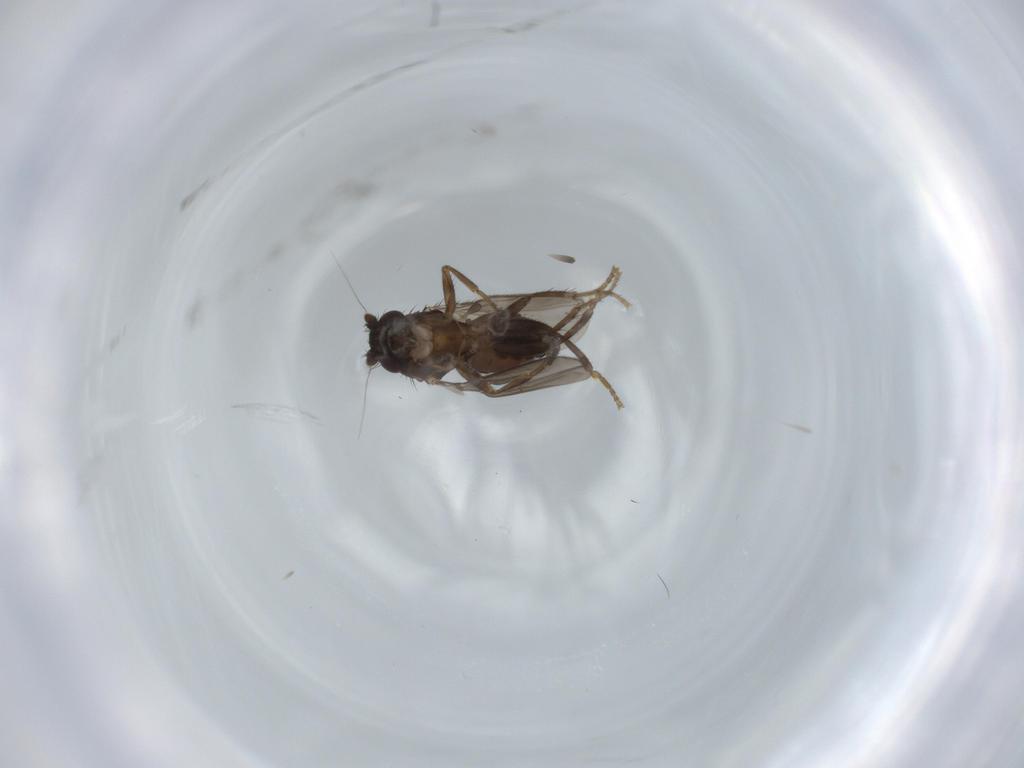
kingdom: Animalia
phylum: Arthropoda
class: Insecta
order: Diptera
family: Sphaeroceridae
